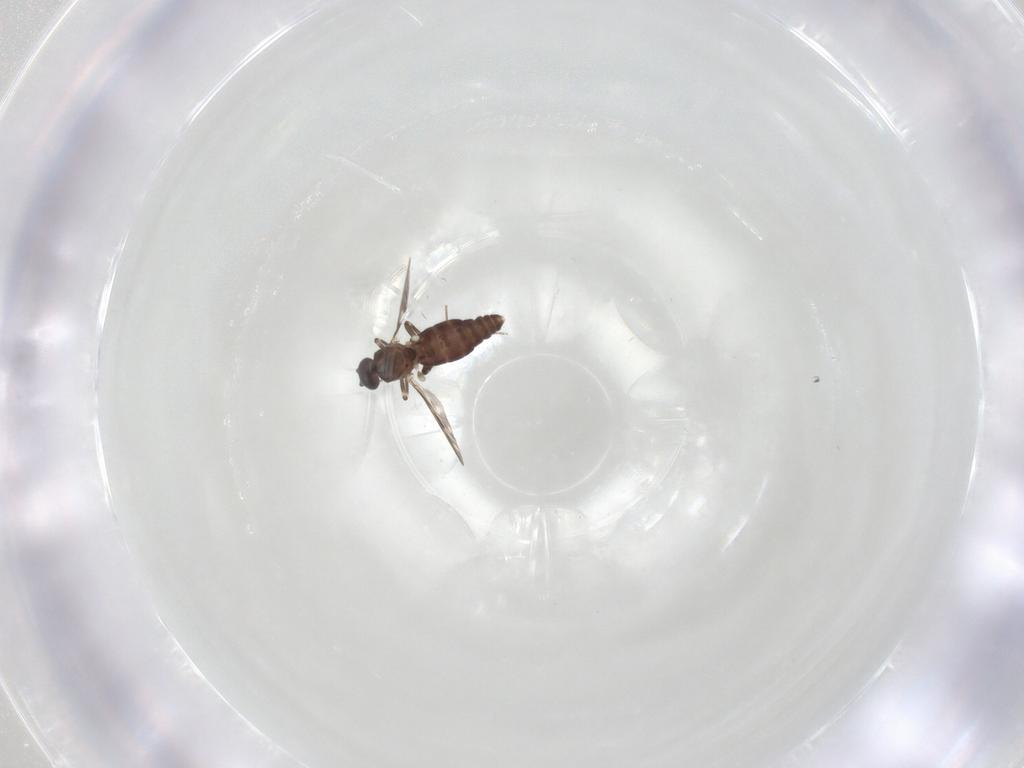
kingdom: Animalia
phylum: Arthropoda
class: Insecta
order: Diptera
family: Ceratopogonidae
